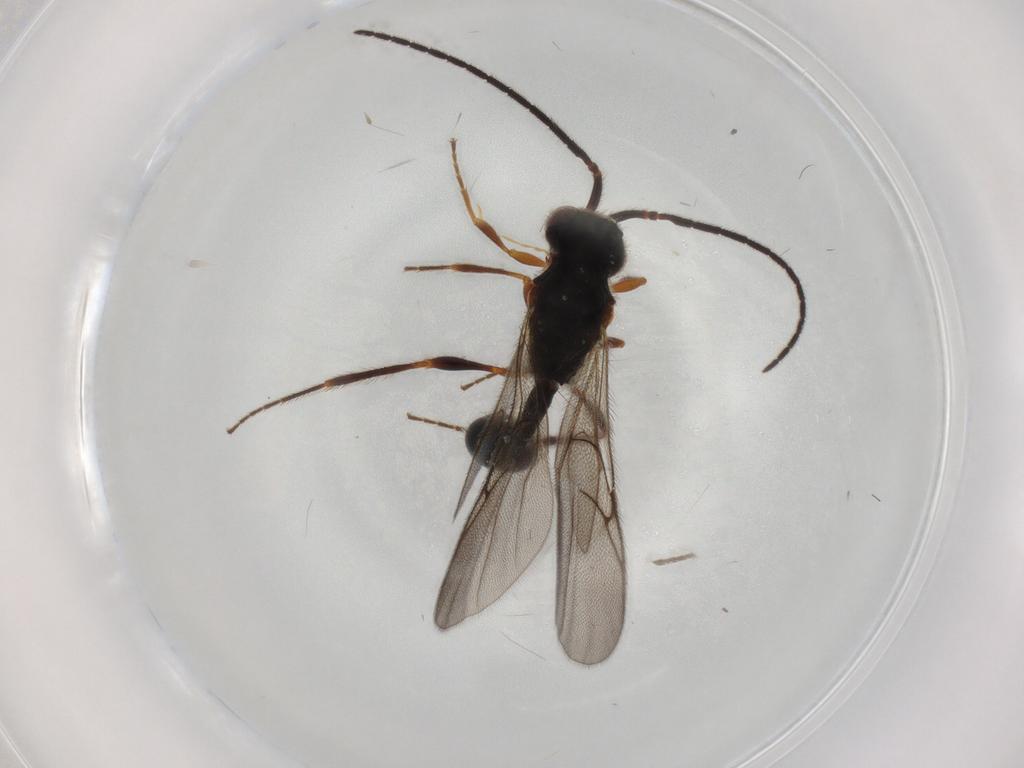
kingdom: Animalia
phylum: Arthropoda
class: Insecta
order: Hymenoptera
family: Diapriidae
